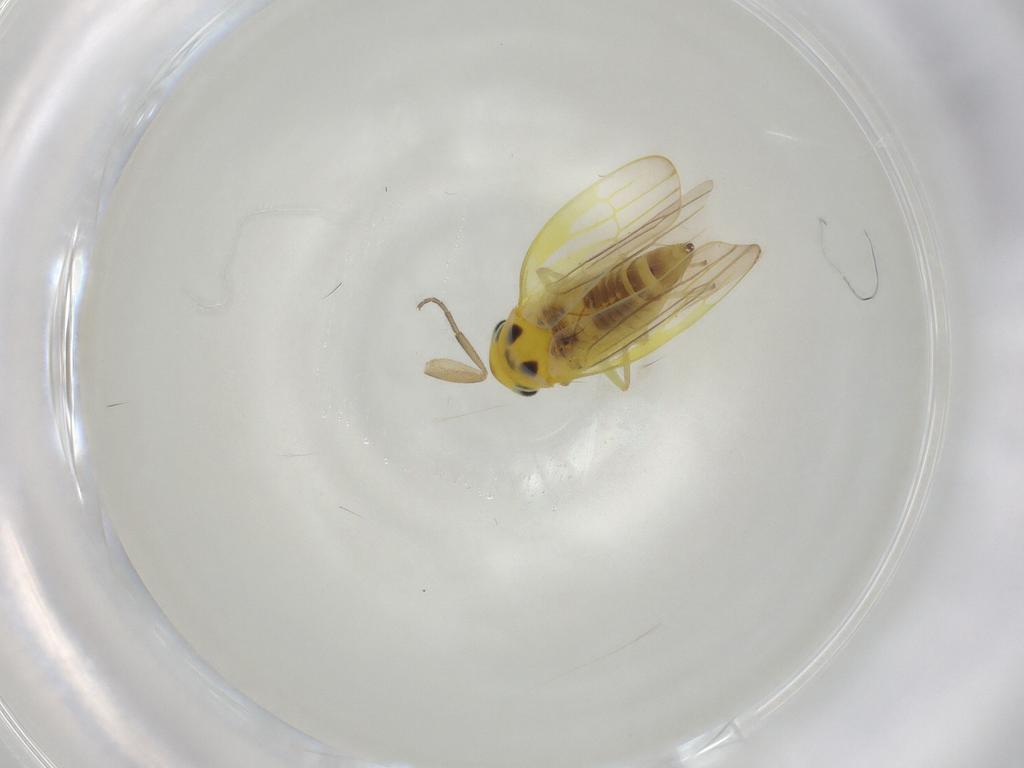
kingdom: Animalia
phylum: Arthropoda
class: Insecta
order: Hemiptera
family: Cicadellidae
